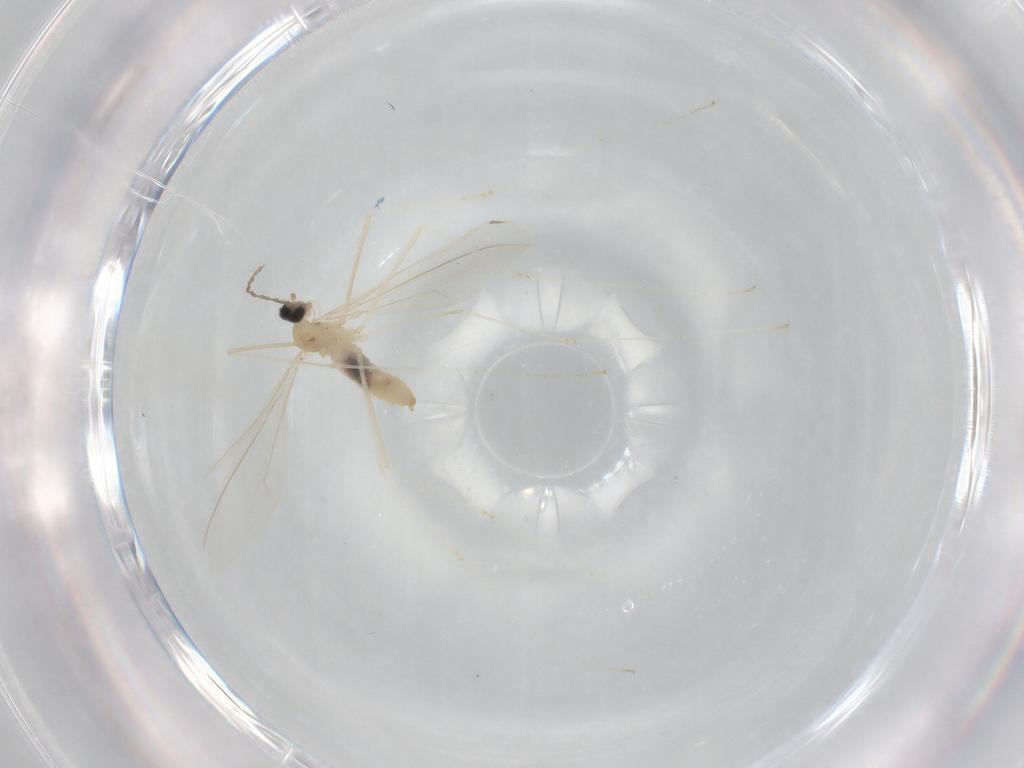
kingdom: Animalia
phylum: Arthropoda
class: Insecta
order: Diptera
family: Cecidomyiidae
